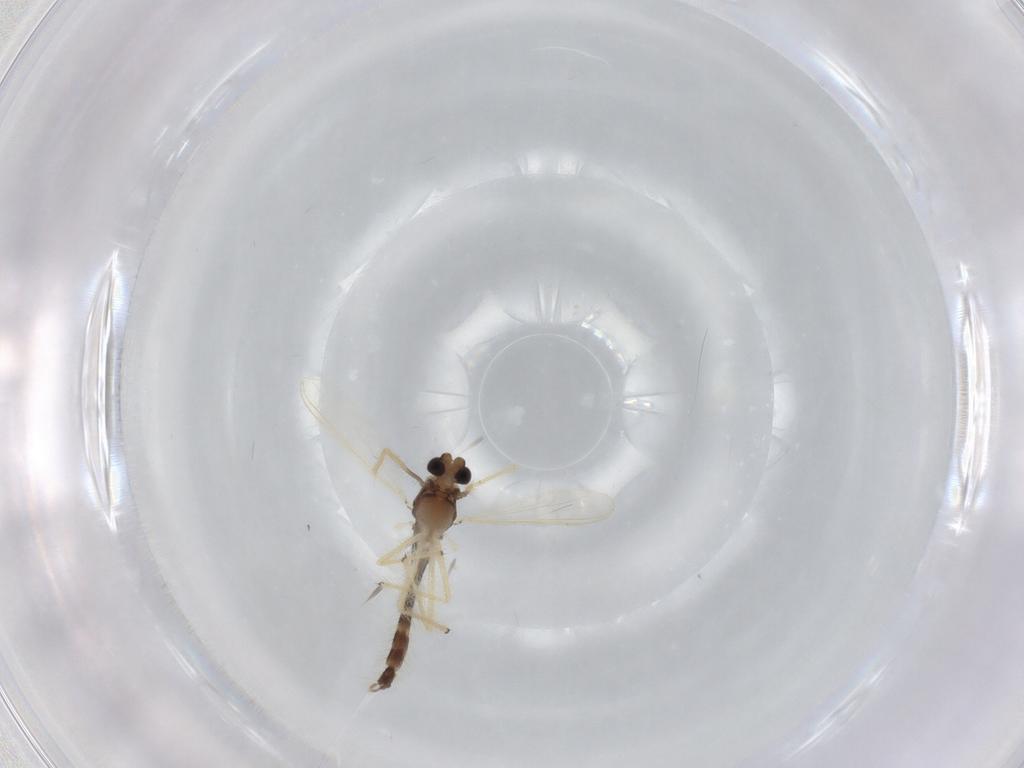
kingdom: Animalia
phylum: Arthropoda
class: Insecta
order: Diptera
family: Chironomidae
